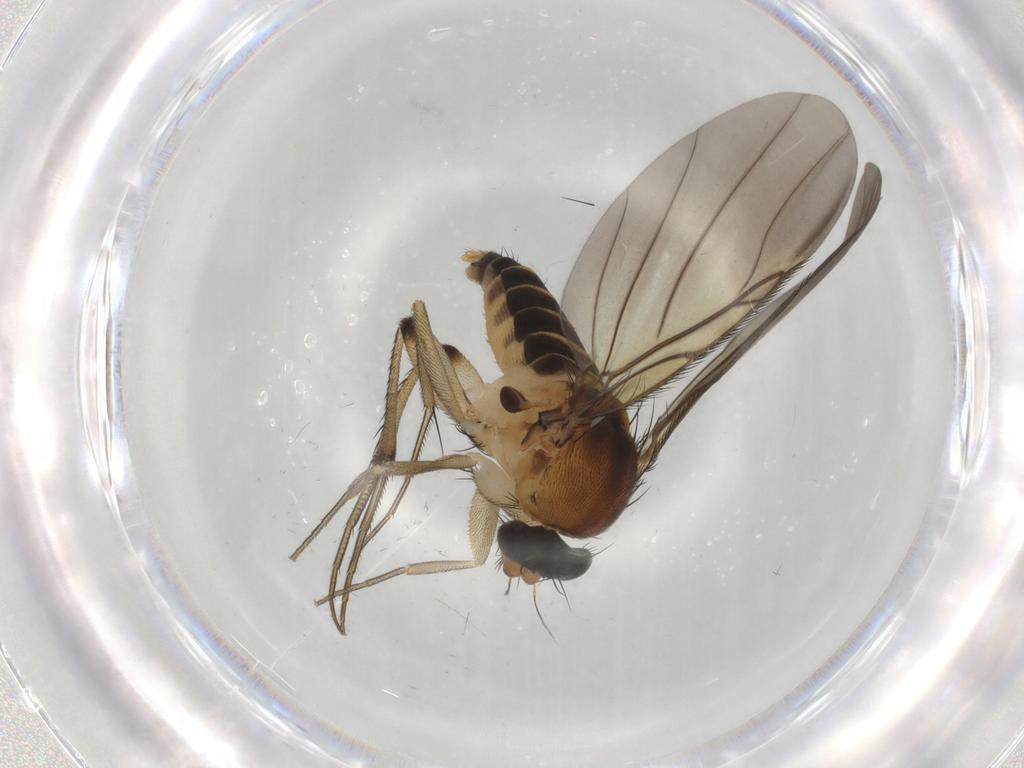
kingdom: Animalia
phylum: Arthropoda
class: Insecta
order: Diptera
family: Phoridae
